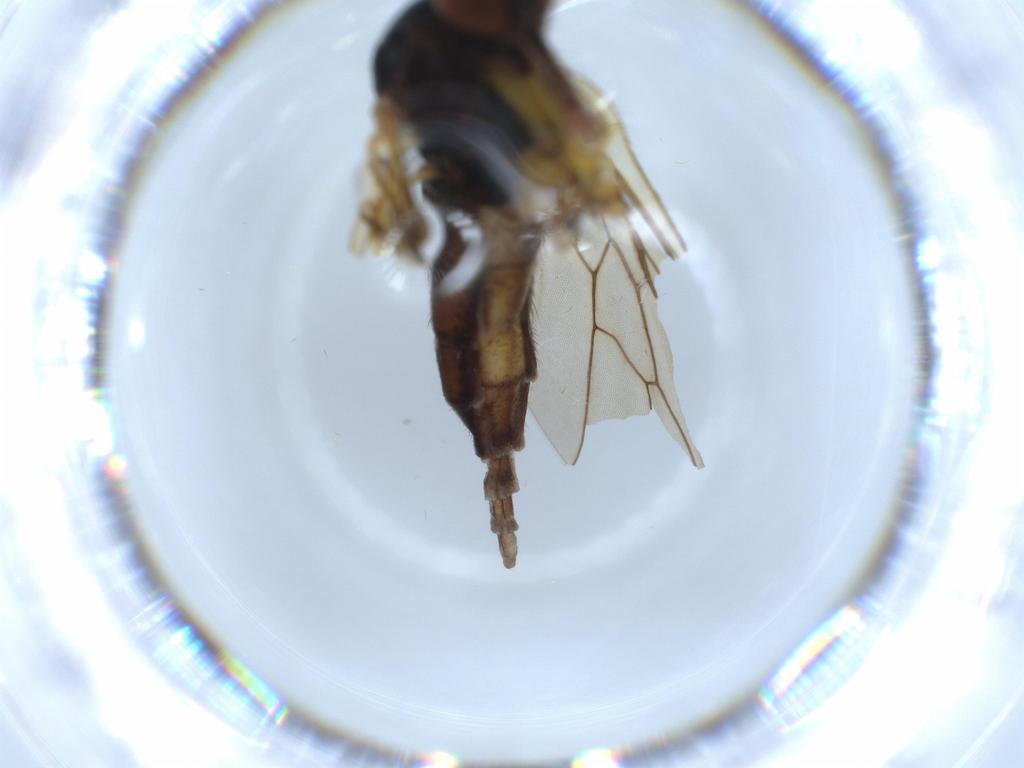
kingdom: Animalia
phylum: Arthropoda
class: Insecta
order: Diptera
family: Empididae
